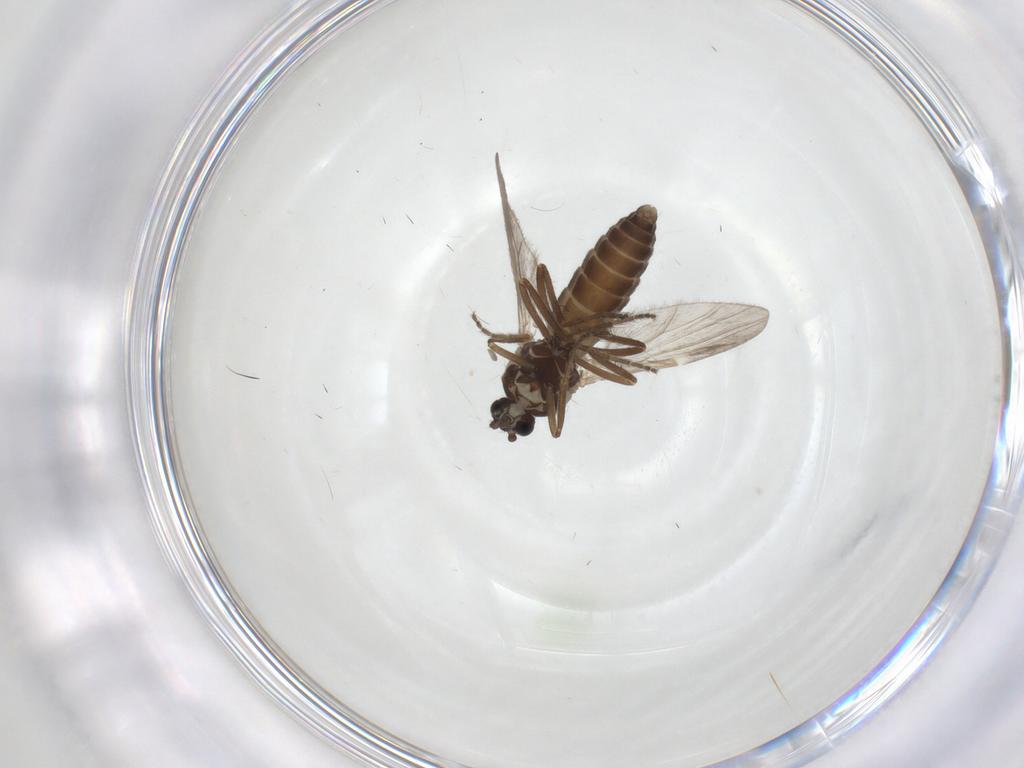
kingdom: Animalia
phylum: Arthropoda
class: Insecta
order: Diptera
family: Ceratopogonidae
